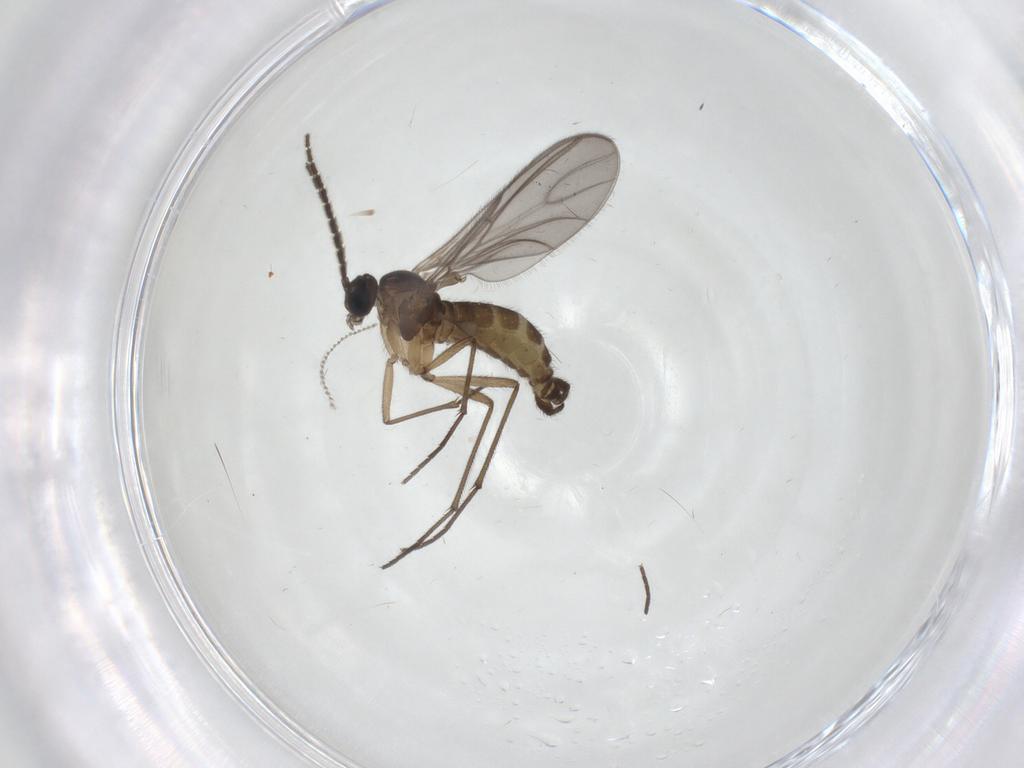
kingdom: Animalia
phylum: Arthropoda
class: Insecta
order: Diptera
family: Sciaridae
